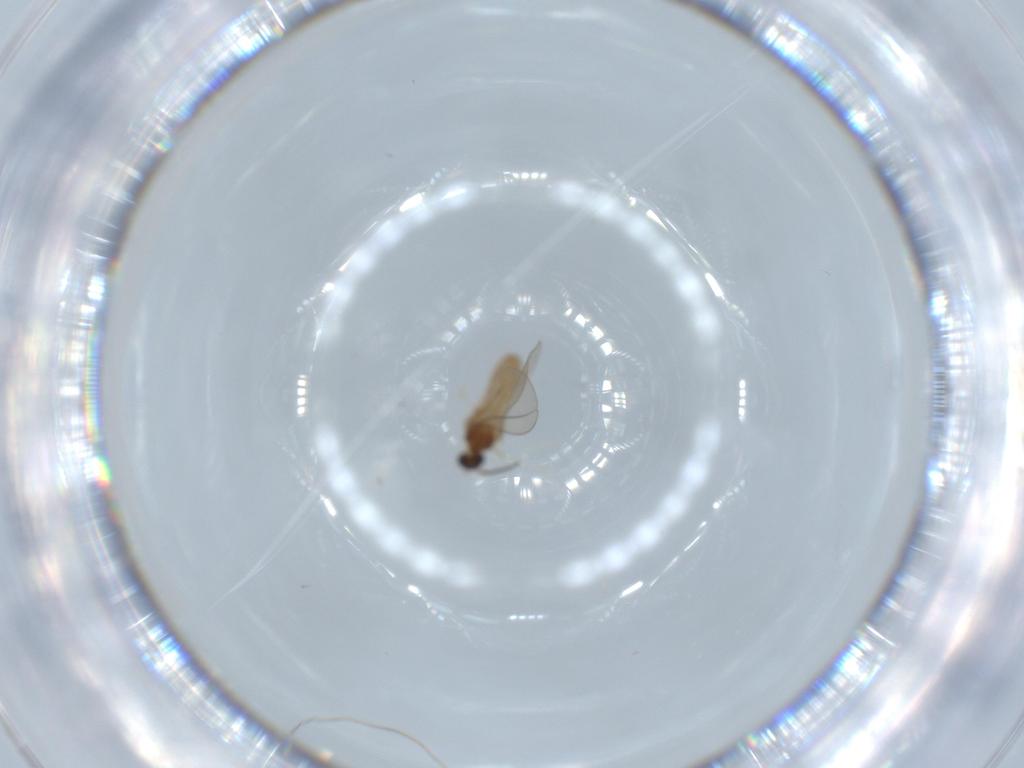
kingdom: Animalia
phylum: Arthropoda
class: Insecta
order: Diptera
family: Cecidomyiidae
